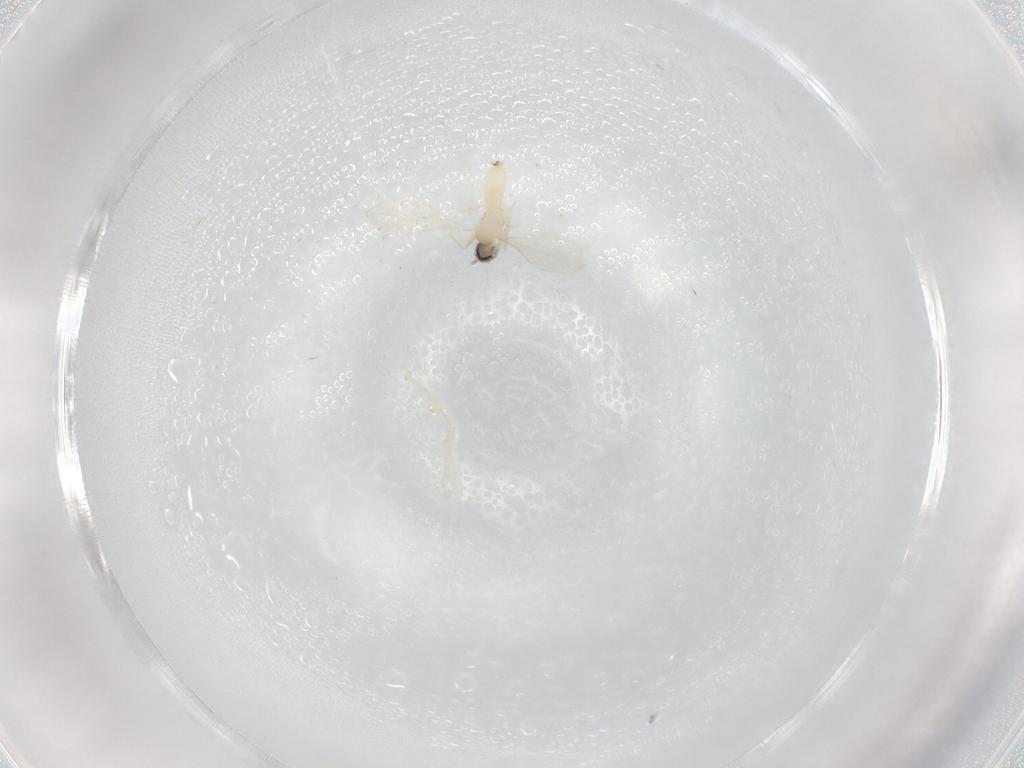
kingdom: Animalia
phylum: Arthropoda
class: Insecta
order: Diptera
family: Cecidomyiidae
